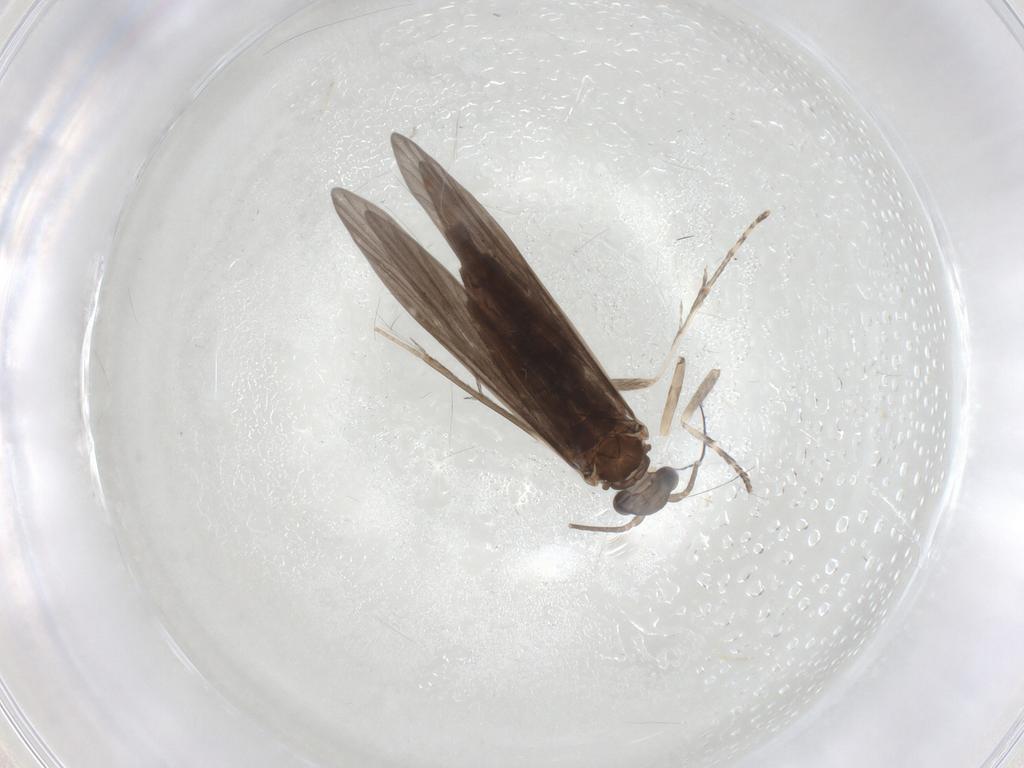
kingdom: Animalia
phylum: Arthropoda
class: Insecta
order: Trichoptera
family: Xiphocentronidae
